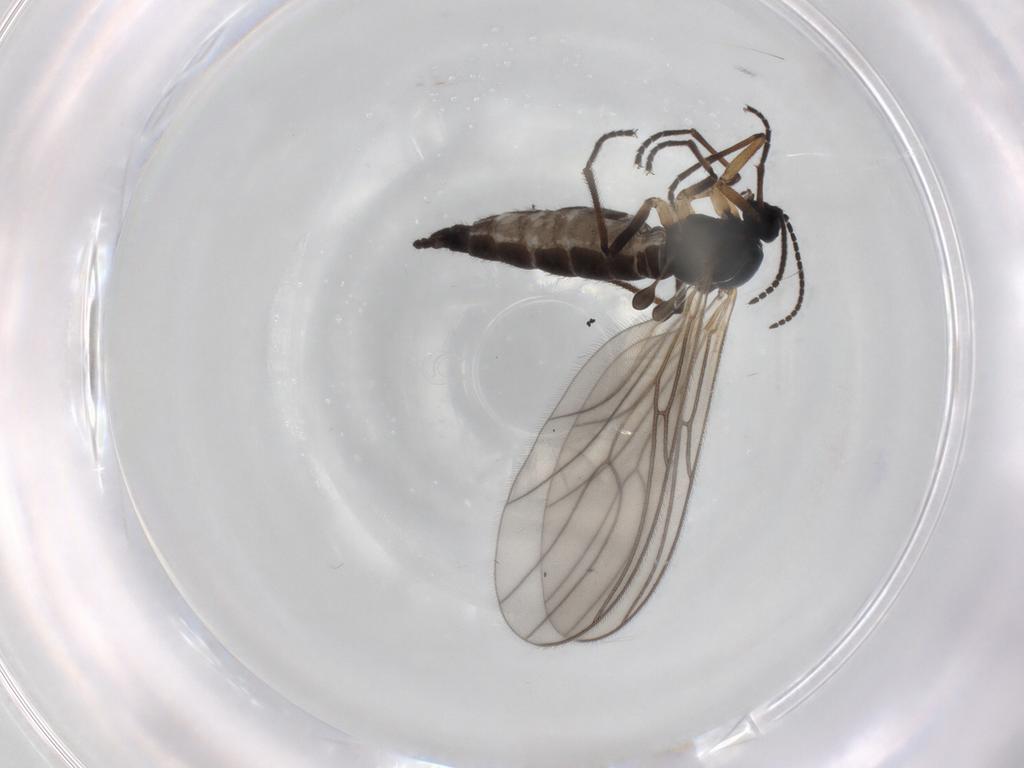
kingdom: Animalia
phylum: Arthropoda
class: Insecta
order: Diptera
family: Sciaridae
